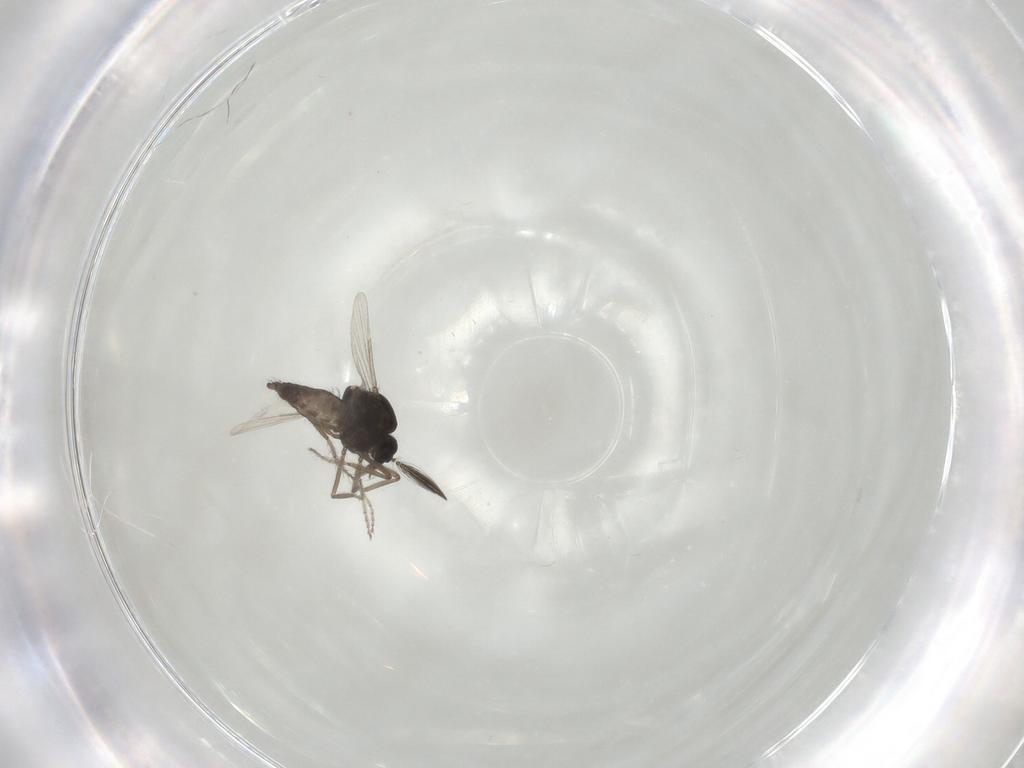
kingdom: Animalia
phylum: Arthropoda
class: Insecta
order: Diptera
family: Ceratopogonidae
